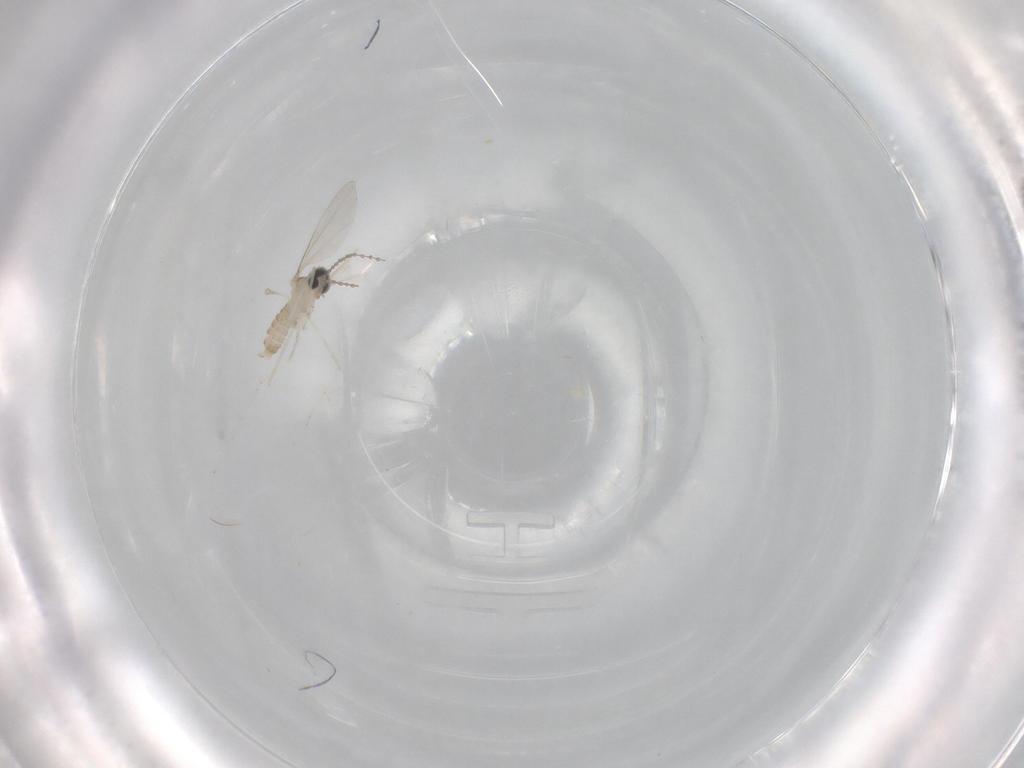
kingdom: Animalia
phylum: Arthropoda
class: Insecta
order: Diptera
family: Cecidomyiidae
